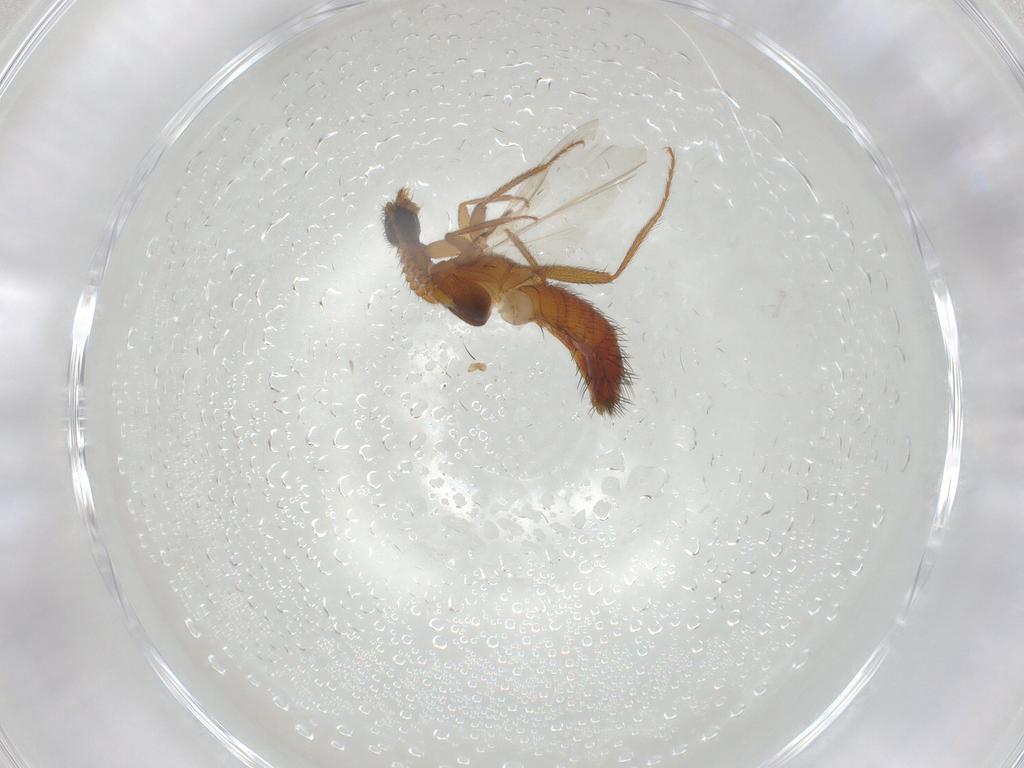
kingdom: Animalia
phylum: Arthropoda
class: Insecta
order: Coleoptera
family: Staphylinidae
